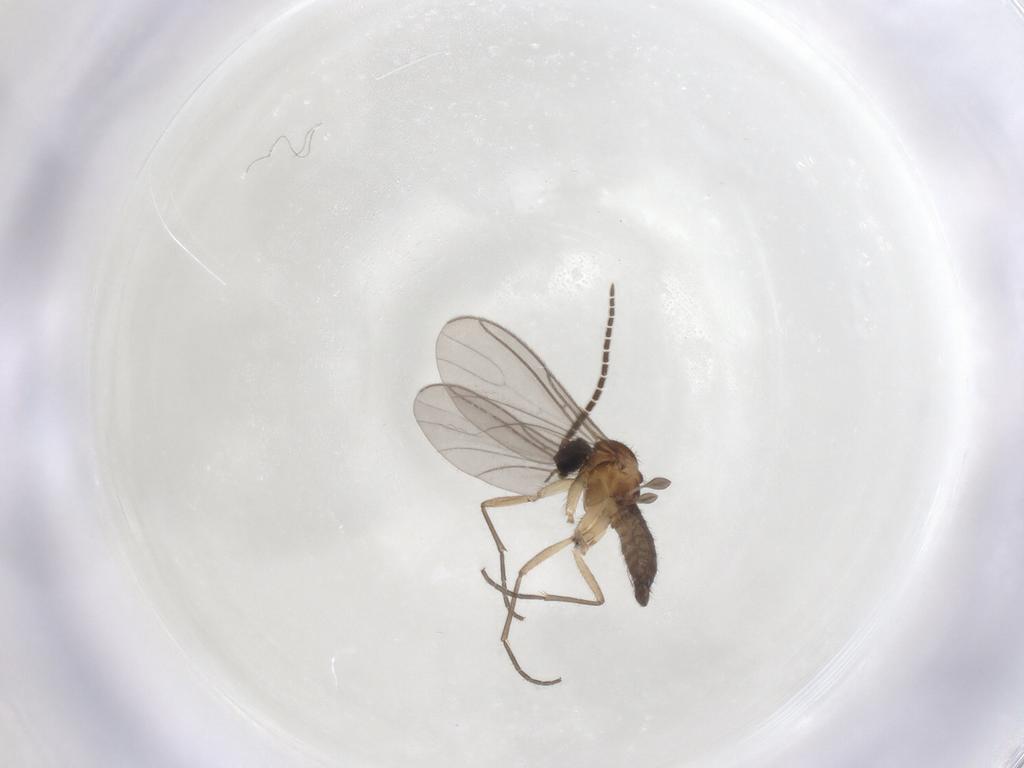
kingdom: Animalia
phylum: Arthropoda
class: Insecta
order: Diptera
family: Sciaridae
